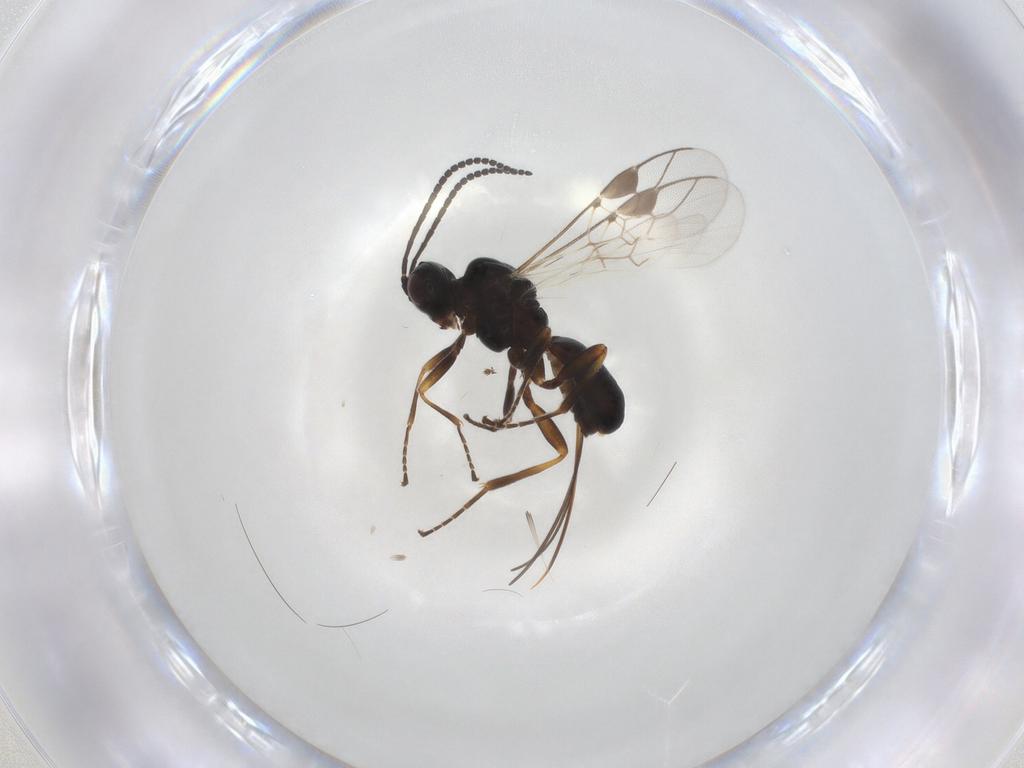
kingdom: Animalia
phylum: Arthropoda
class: Insecta
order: Hymenoptera
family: Braconidae
